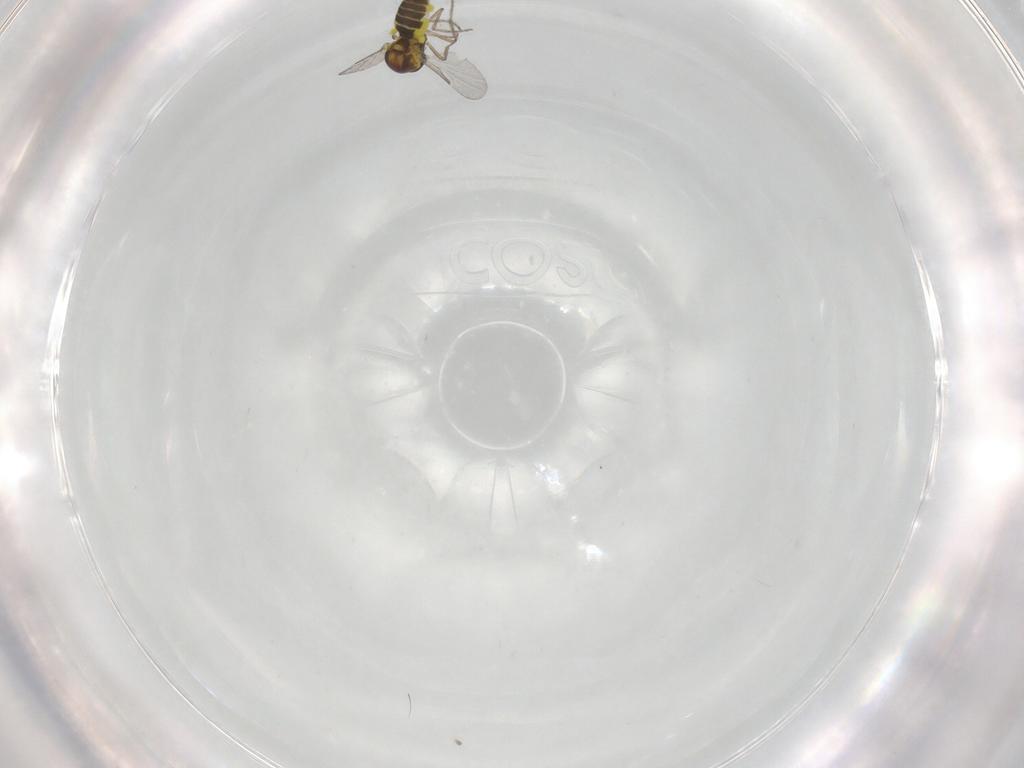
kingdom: Animalia
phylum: Arthropoda
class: Insecta
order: Diptera
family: Ceratopogonidae
